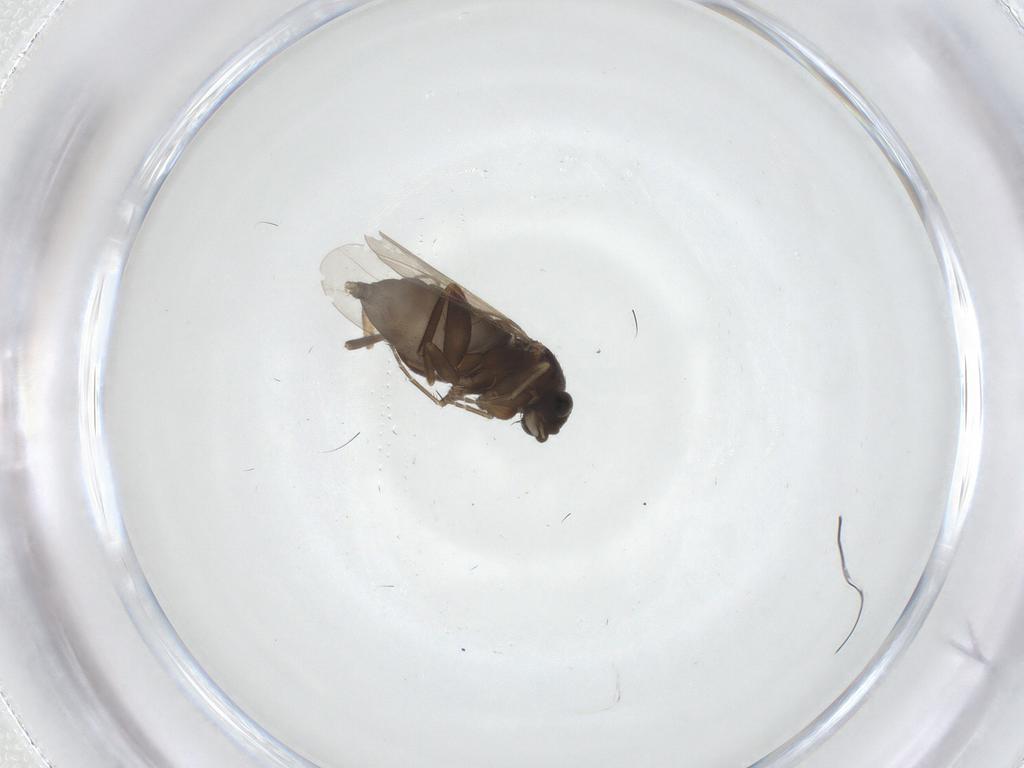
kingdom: Animalia
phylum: Arthropoda
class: Insecta
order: Diptera
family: Phoridae
